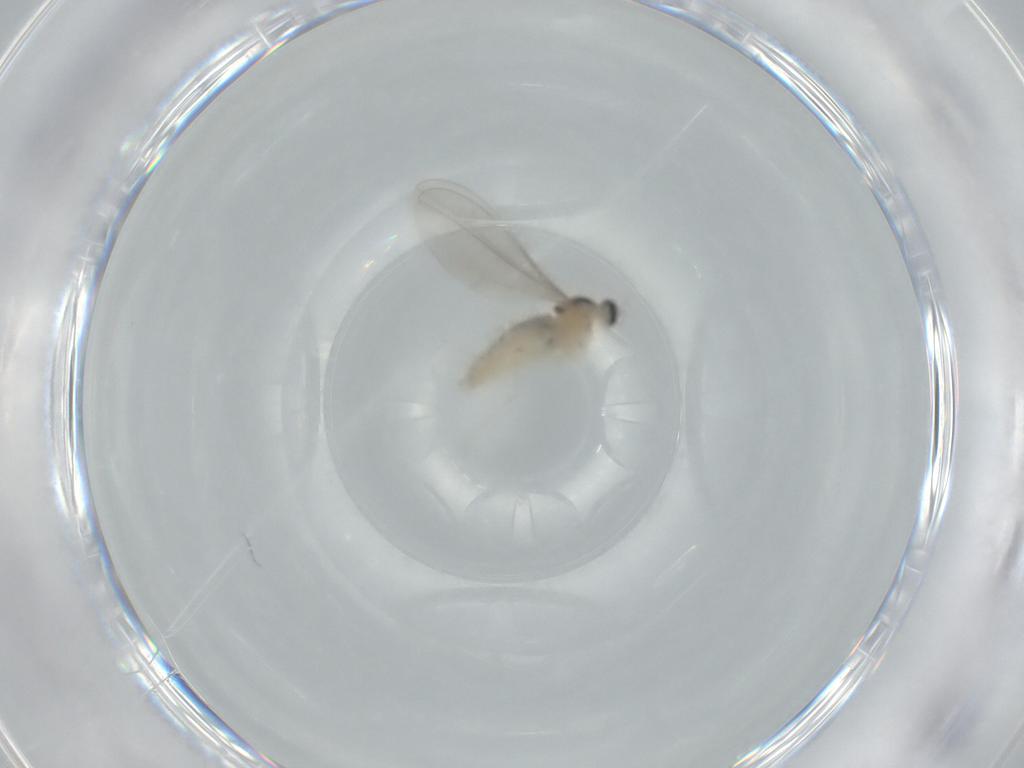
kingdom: Animalia
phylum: Arthropoda
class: Insecta
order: Diptera
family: Cecidomyiidae
